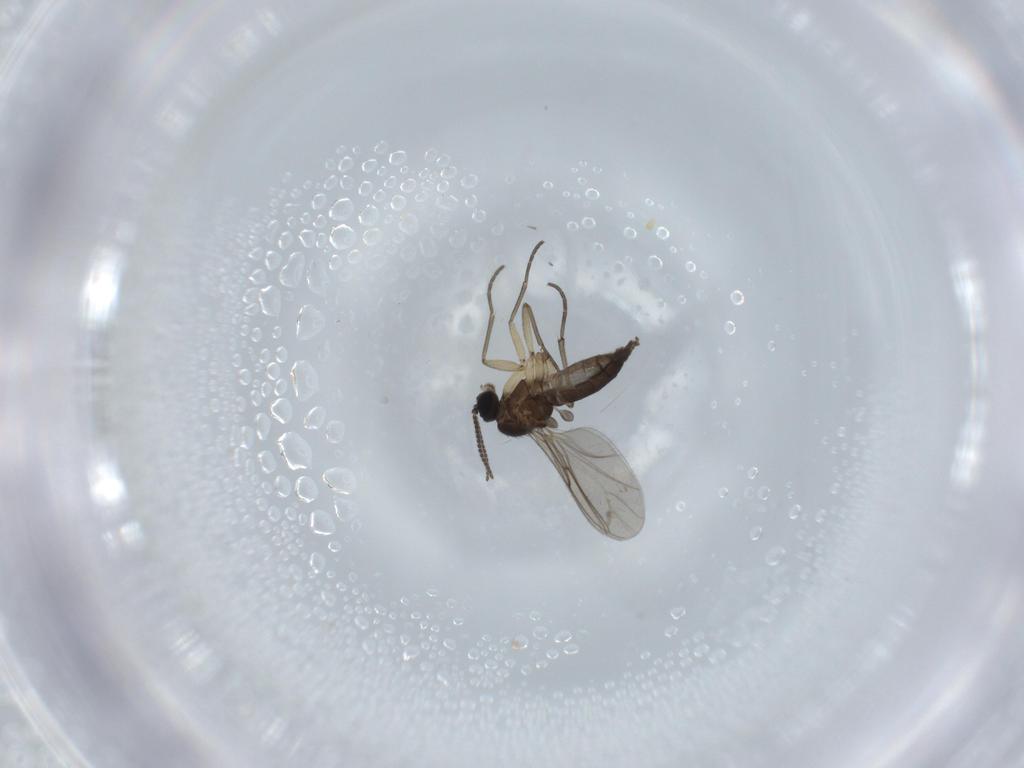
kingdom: Animalia
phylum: Arthropoda
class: Insecta
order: Diptera
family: Sciaridae
